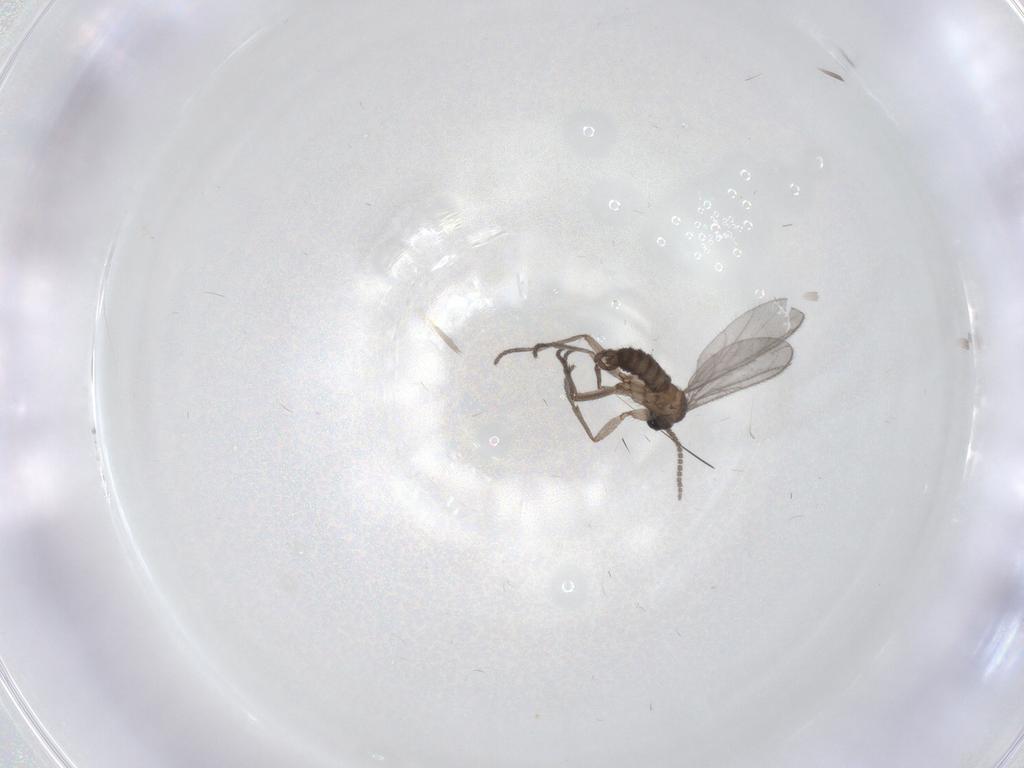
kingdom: Animalia
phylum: Arthropoda
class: Insecta
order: Diptera
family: Sciaridae
